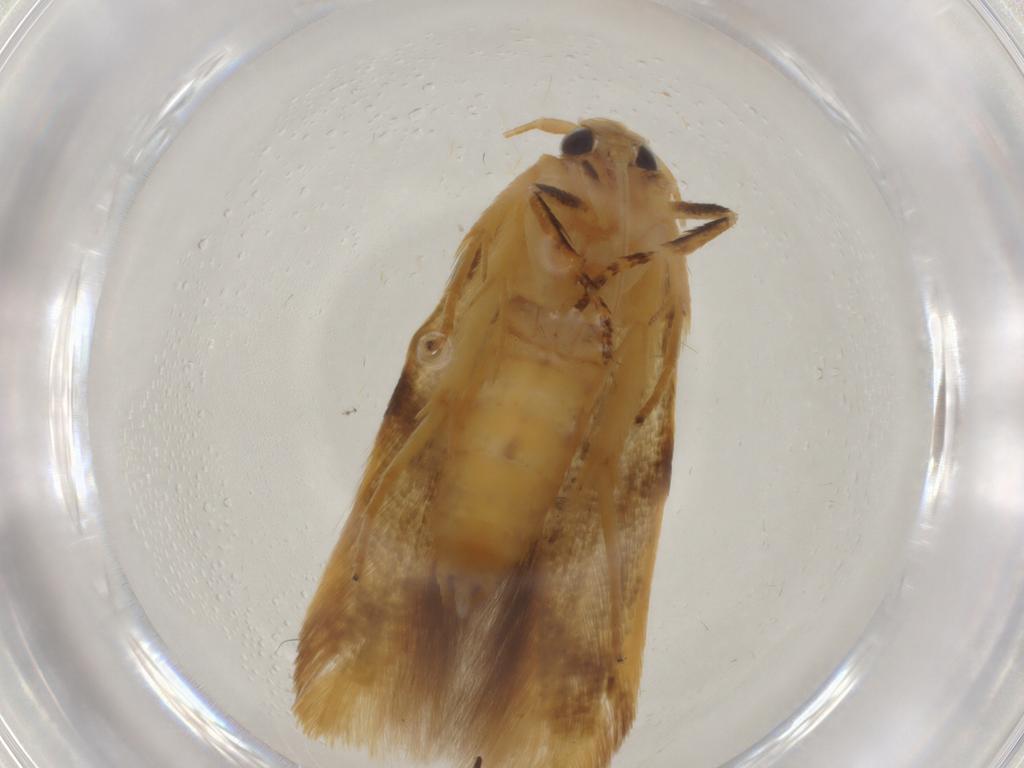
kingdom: Animalia
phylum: Arthropoda
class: Insecta
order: Lepidoptera
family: Oecophoridae
